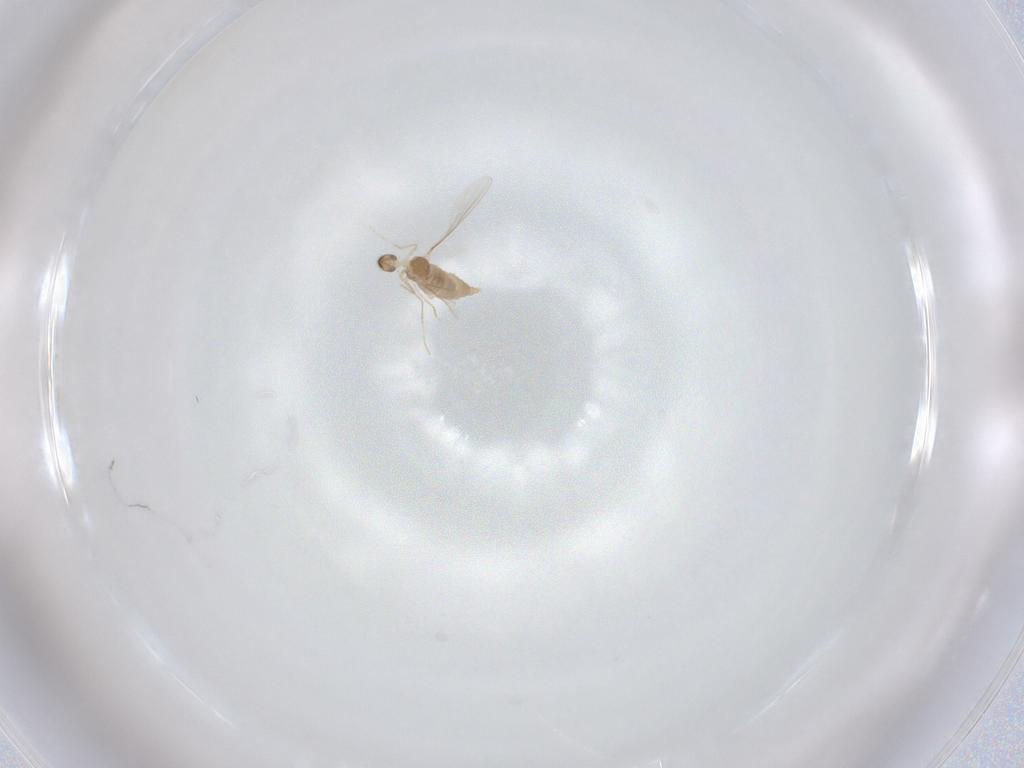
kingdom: Animalia
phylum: Arthropoda
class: Insecta
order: Diptera
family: Cecidomyiidae
